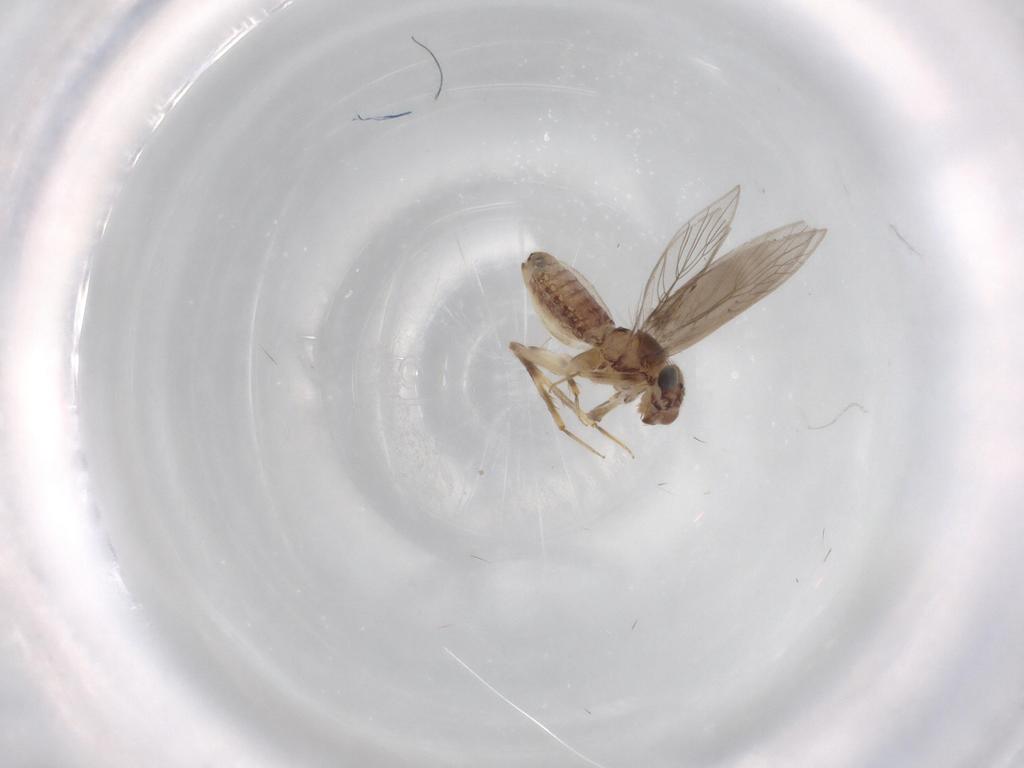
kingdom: Animalia
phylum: Arthropoda
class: Insecta
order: Psocodea
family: Lepidopsocidae
